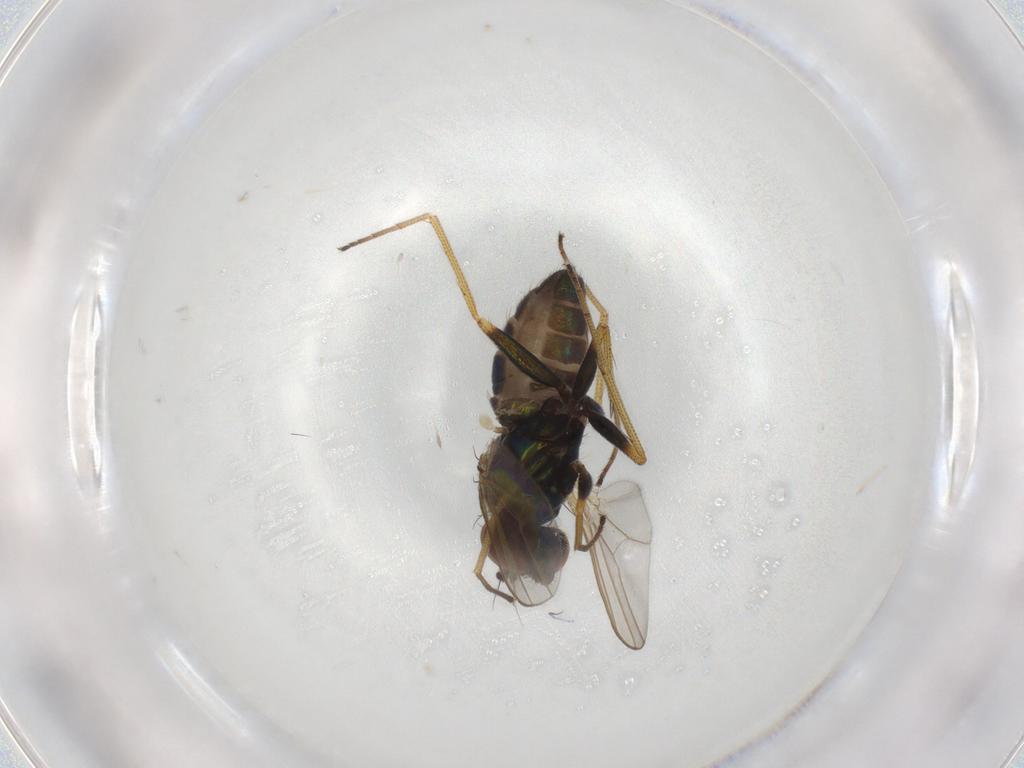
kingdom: Animalia
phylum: Arthropoda
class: Insecta
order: Diptera
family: Dolichopodidae
